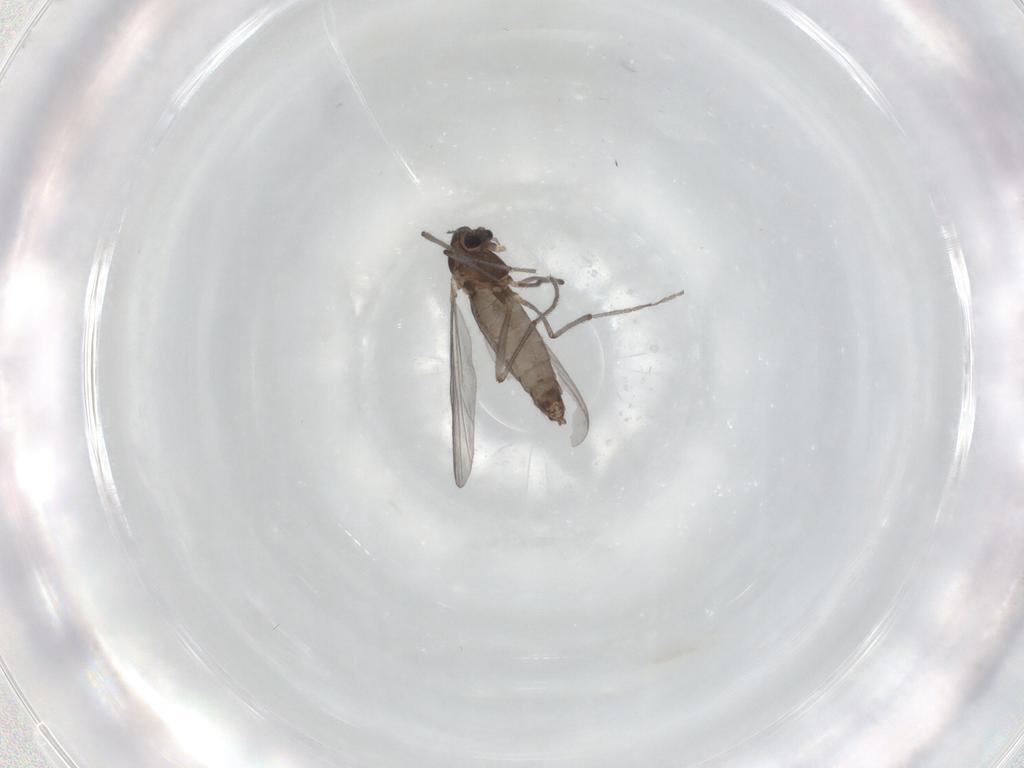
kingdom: Animalia
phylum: Arthropoda
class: Insecta
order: Diptera
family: Chironomidae
